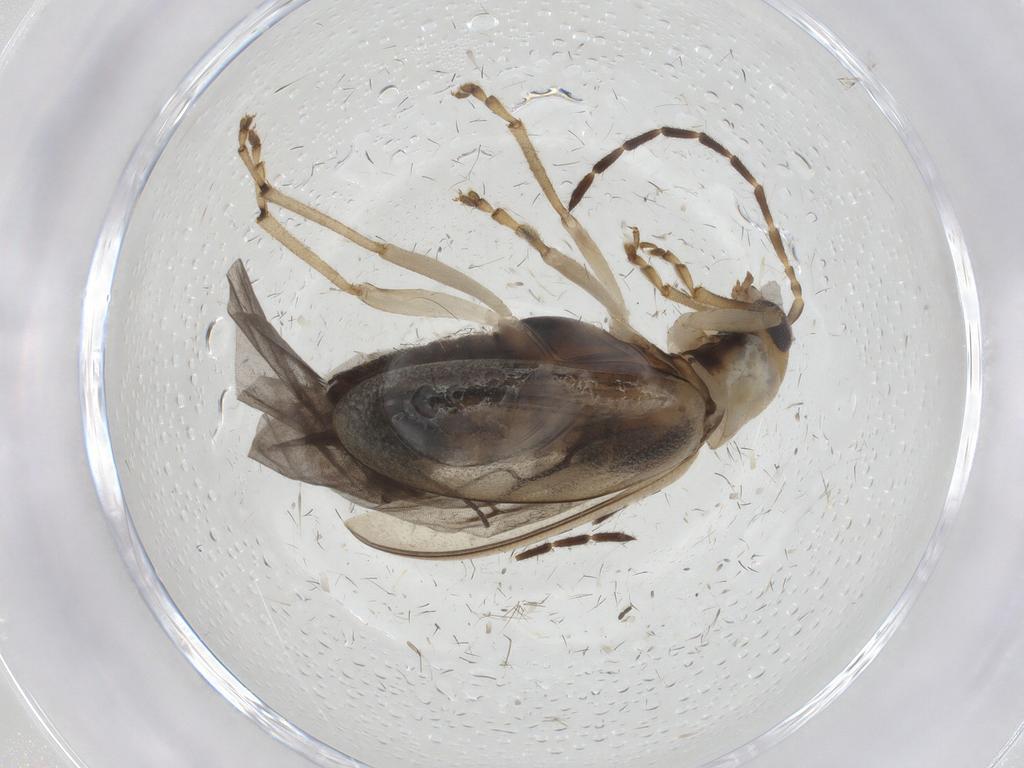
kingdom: Animalia
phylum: Arthropoda
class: Insecta
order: Coleoptera
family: Chrysomelidae
